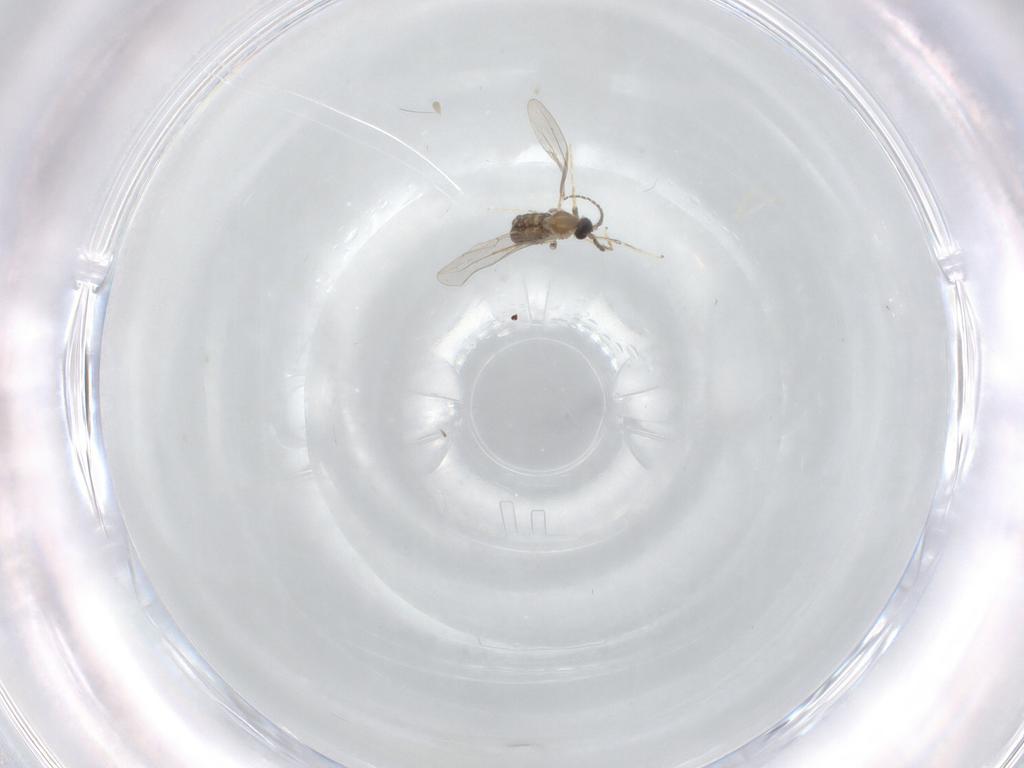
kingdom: Animalia
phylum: Arthropoda
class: Insecta
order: Diptera
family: Cecidomyiidae
